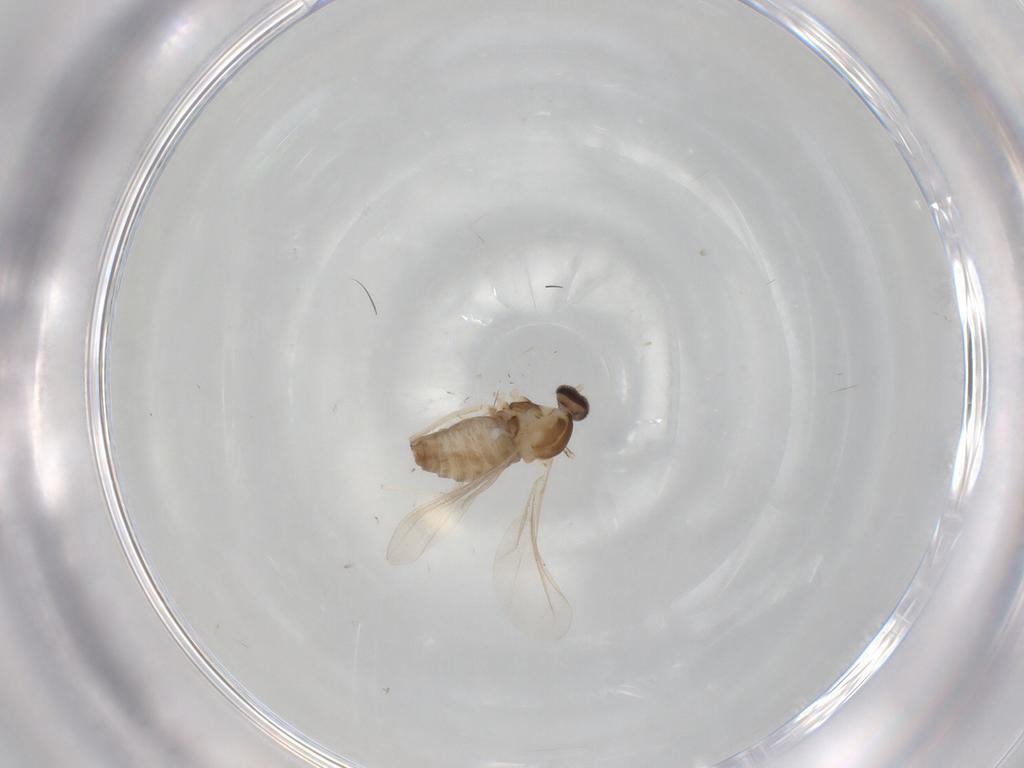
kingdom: Animalia
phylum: Arthropoda
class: Insecta
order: Diptera
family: Cecidomyiidae
